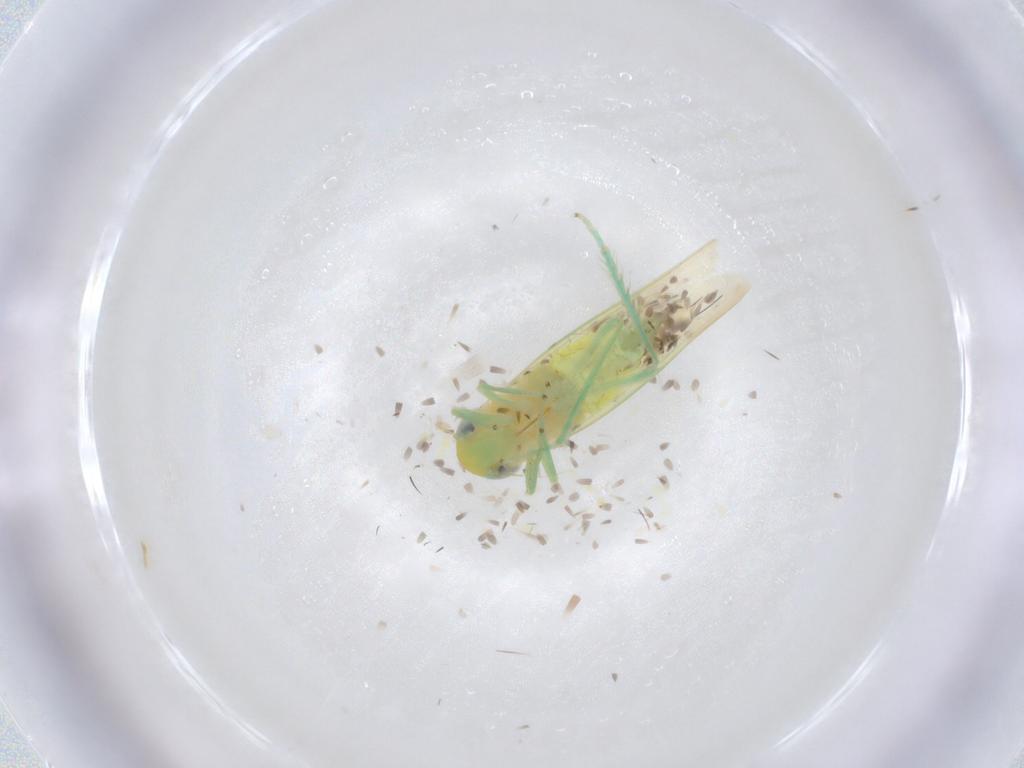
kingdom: Animalia
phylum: Arthropoda
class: Insecta
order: Hemiptera
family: Cicadellidae
